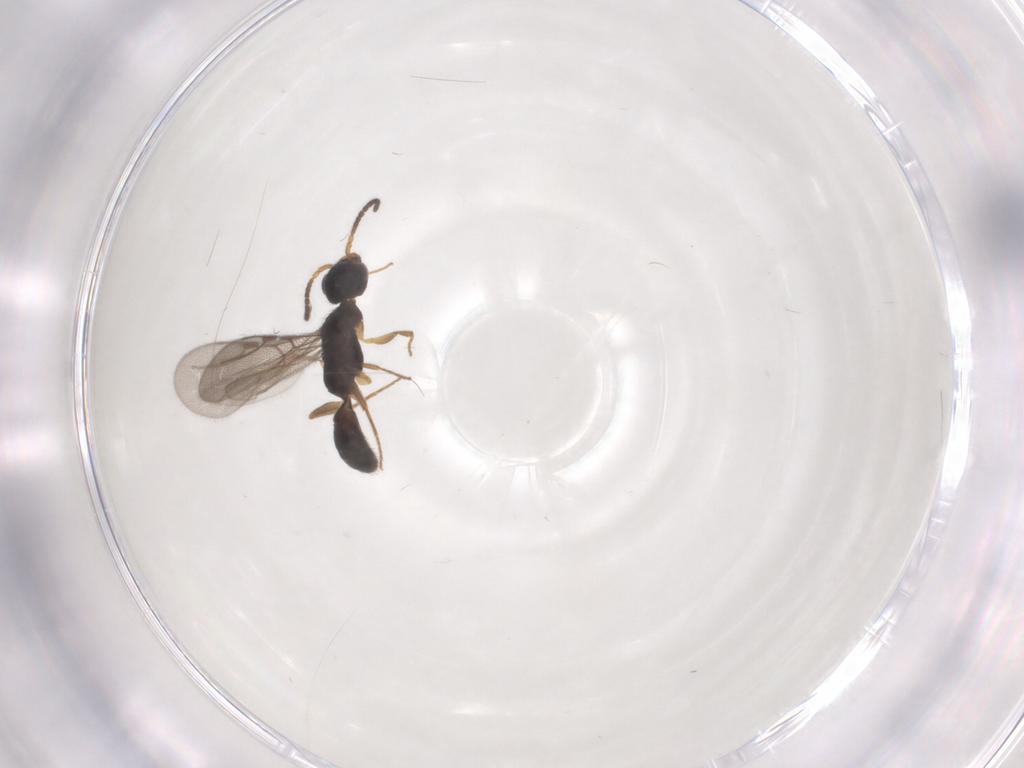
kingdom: Animalia
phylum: Arthropoda
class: Insecta
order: Hymenoptera
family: Bethylidae
